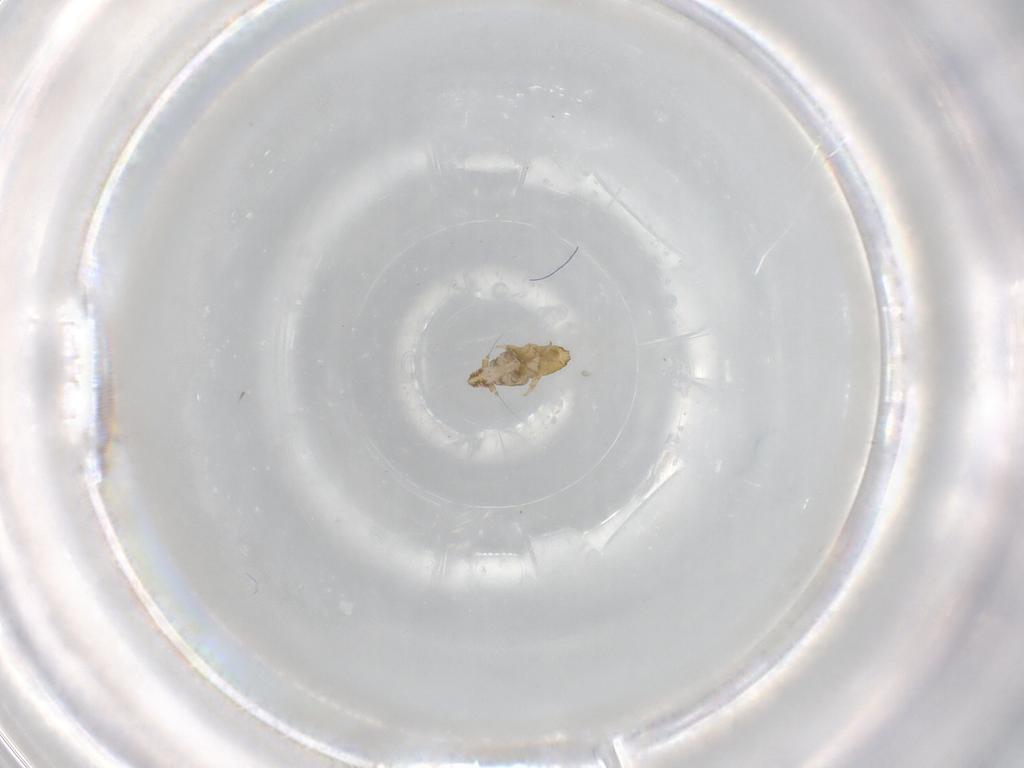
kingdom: Animalia
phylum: Arthropoda
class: Insecta
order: Hemiptera
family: Delphacidae
